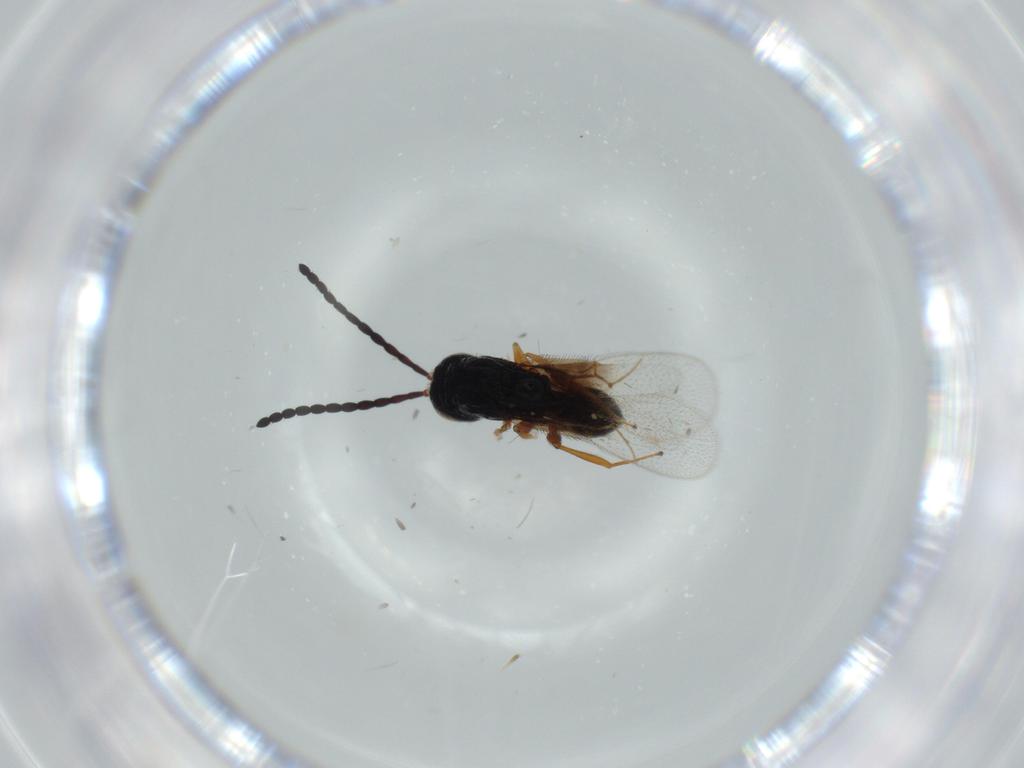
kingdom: Animalia
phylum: Arthropoda
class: Insecta
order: Hymenoptera
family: Figitidae
